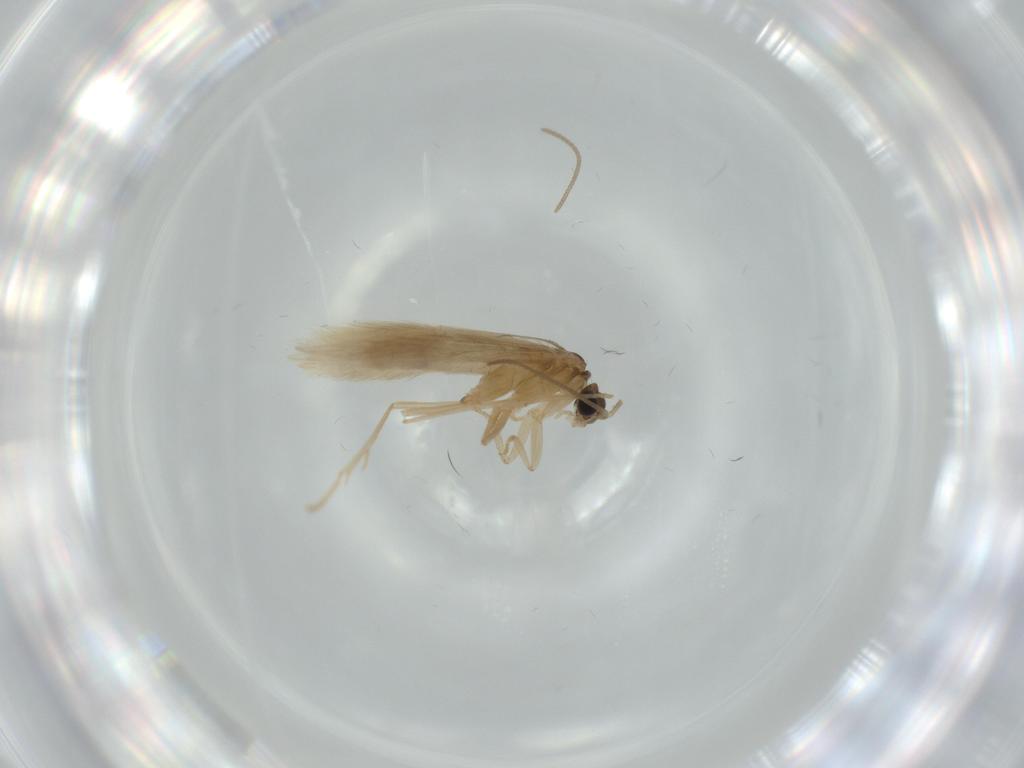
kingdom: Animalia
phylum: Arthropoda
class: Insecta
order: Trichoptera
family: Leptoceridae
